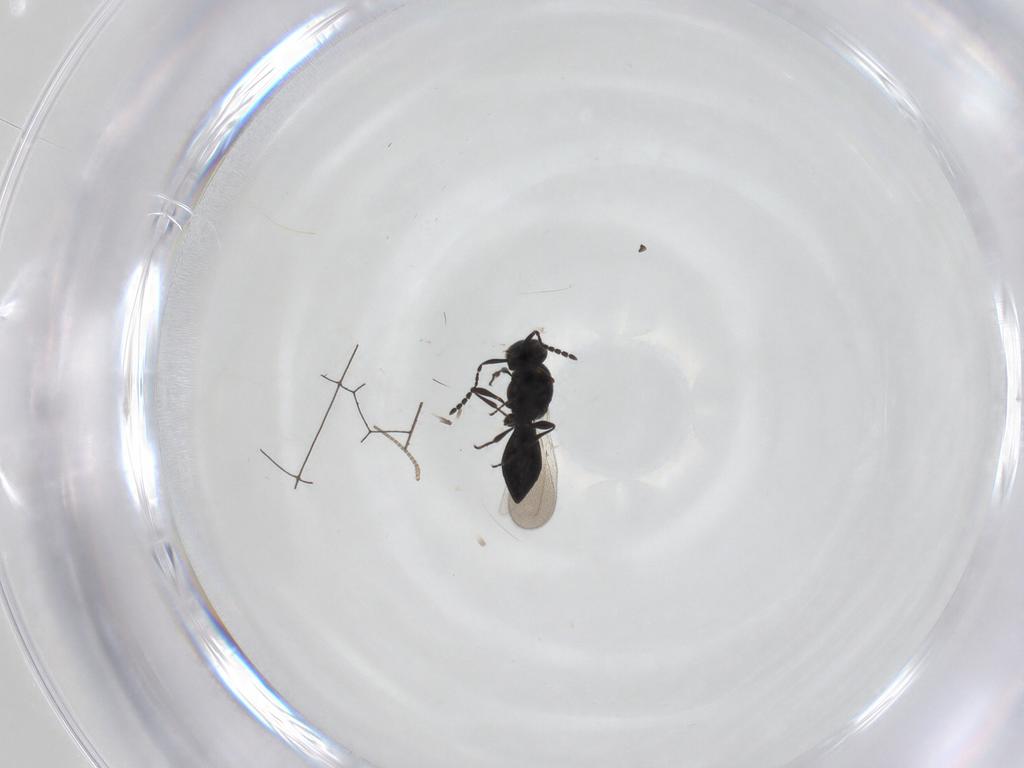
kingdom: Animalia
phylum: Arthropoda
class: Insecta
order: Hymenoptera
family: Platygastridae
